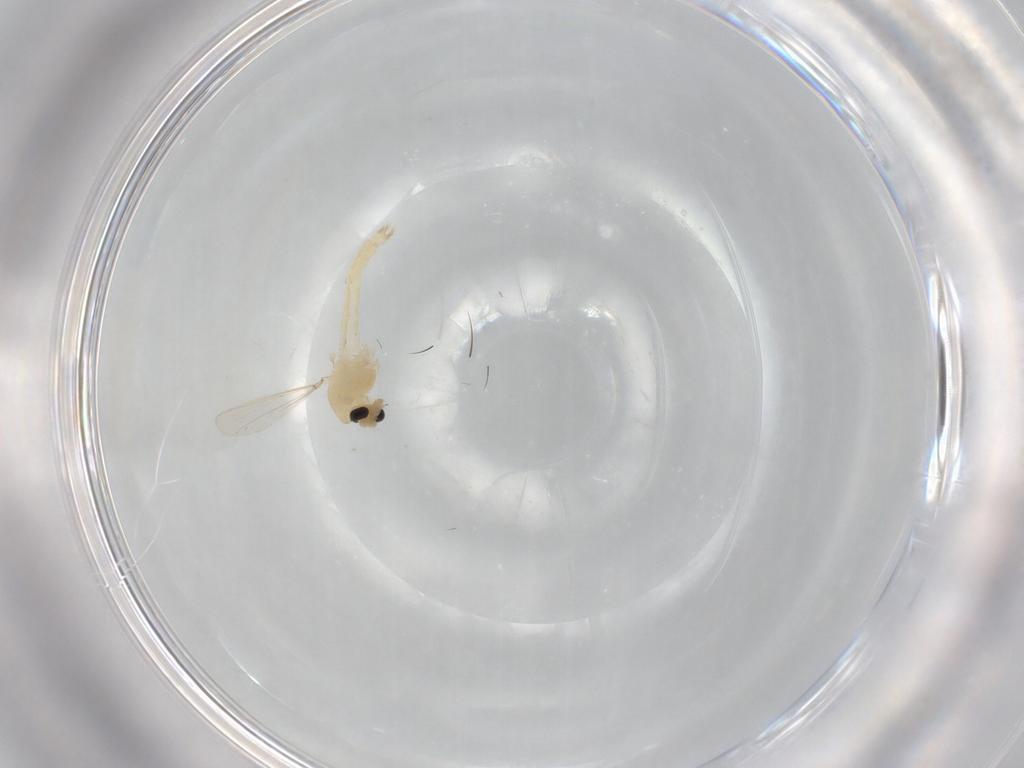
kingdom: Animalia
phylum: Arthropoda
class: Insecta
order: Diptera
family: Chironomidae
